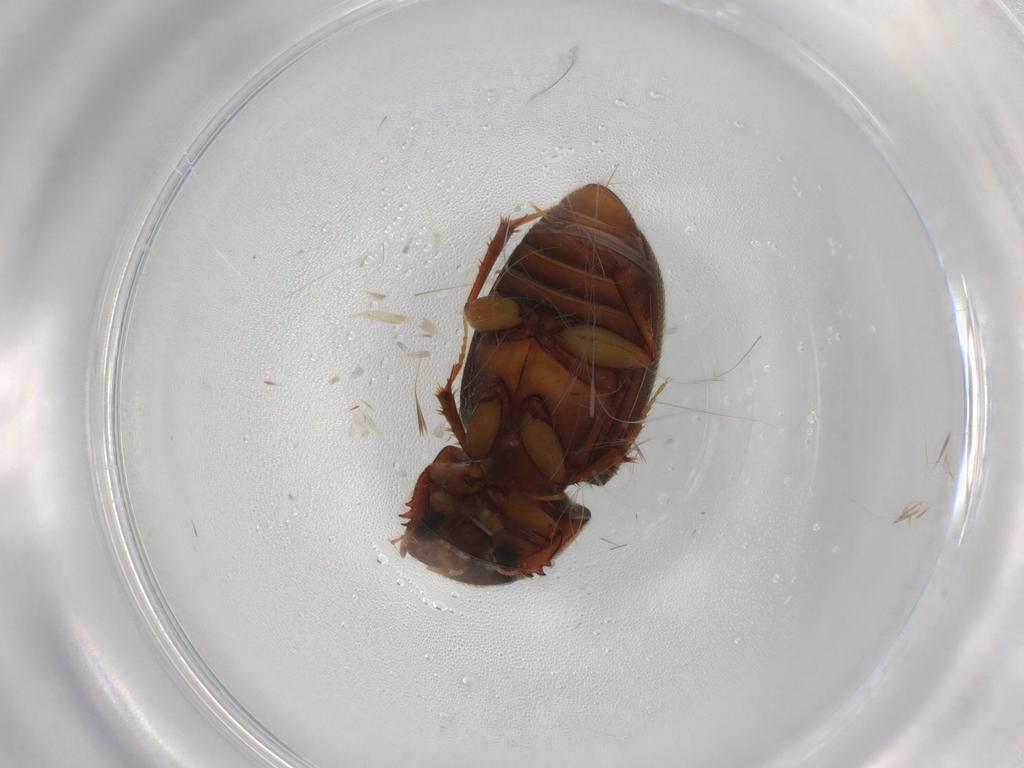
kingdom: Animalia
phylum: Arthropoda
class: Insecta
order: Coleoptera
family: Scarabaeidae
